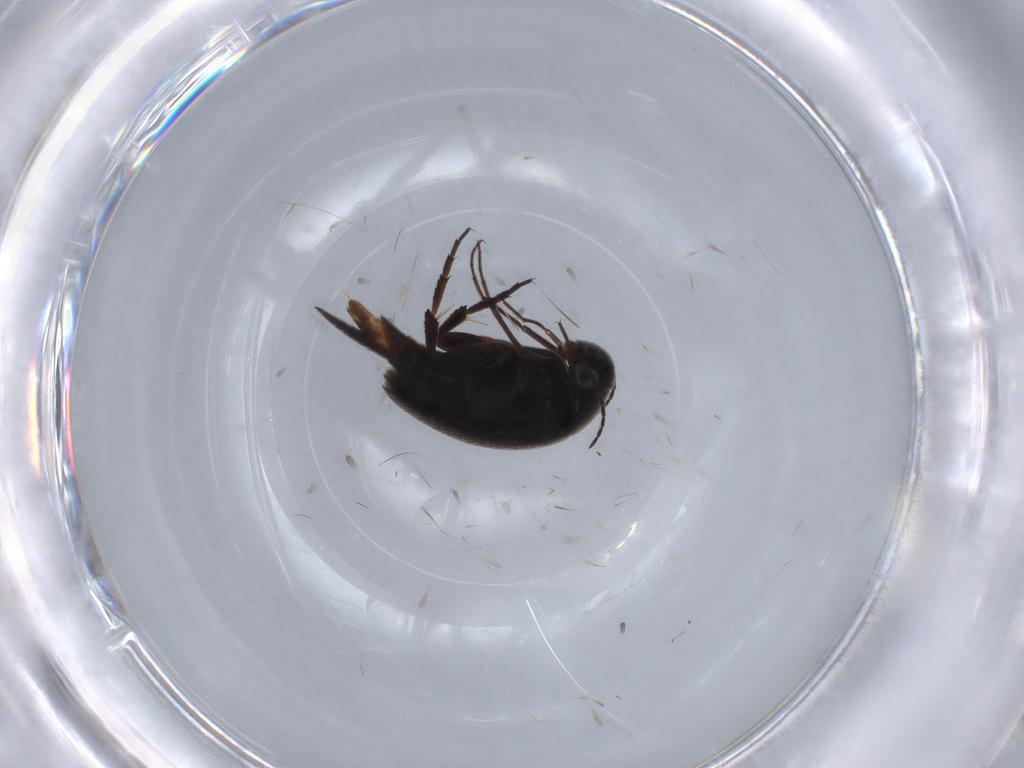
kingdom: Animalia
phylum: Arthropoda
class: Insecta
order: Coleoptera
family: Mordellidae
